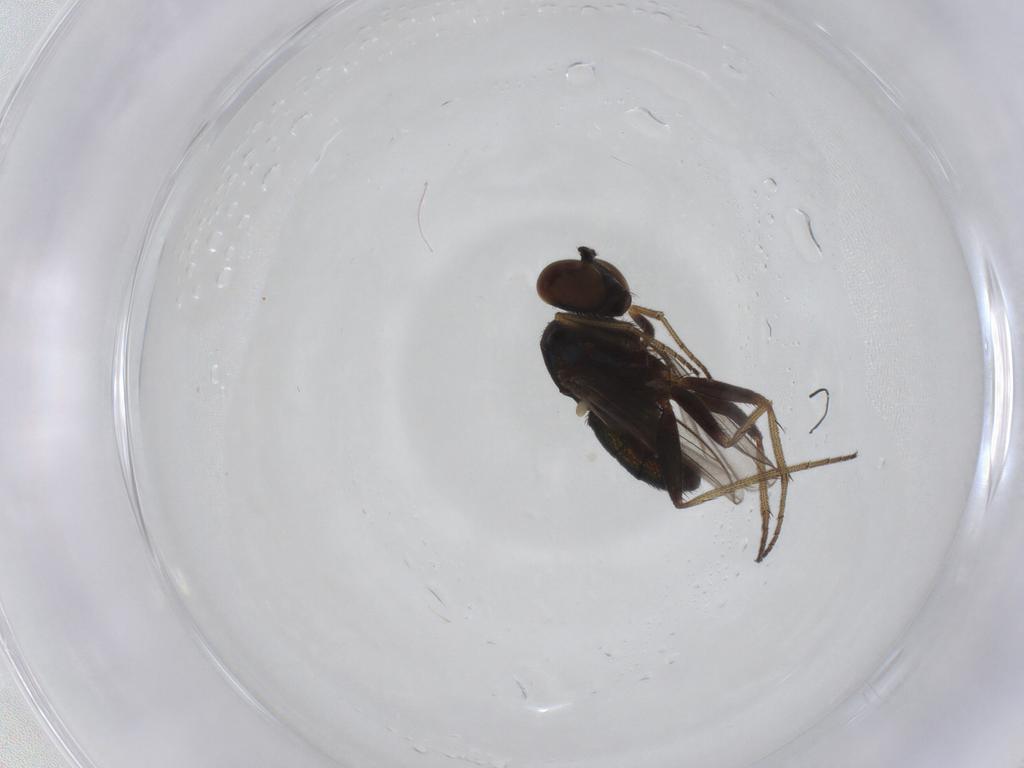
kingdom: Animalia
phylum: Arthropoda
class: Insecta
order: Diptera
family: Dolichopodidae
